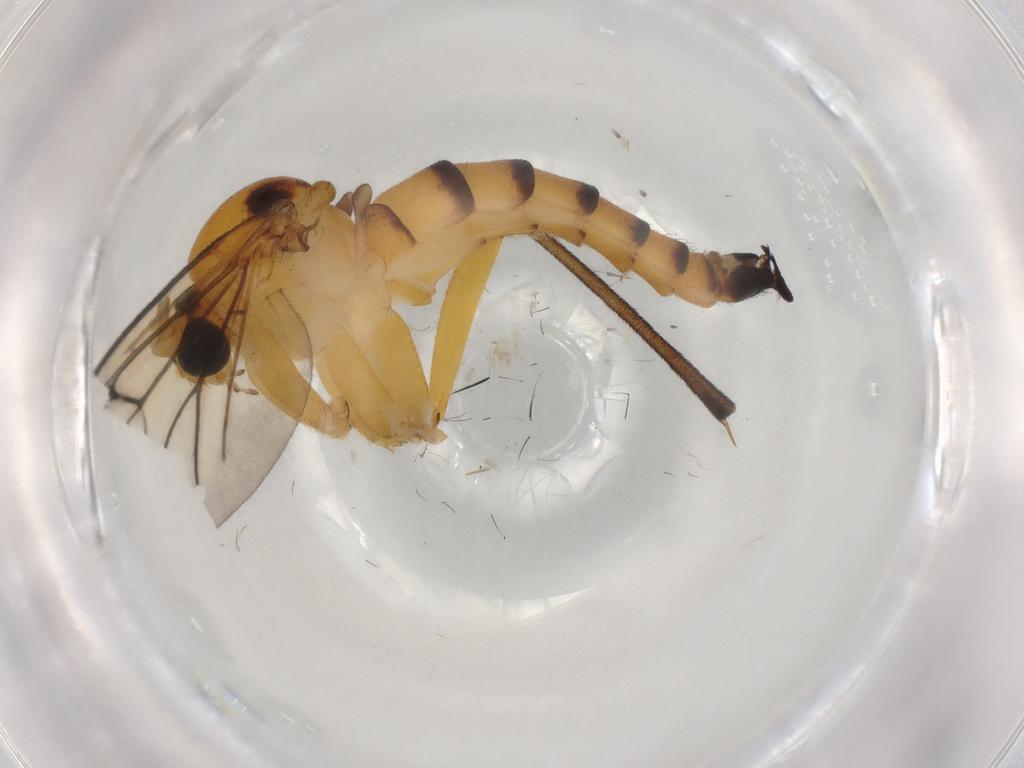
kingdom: Animalia
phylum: Arthropoda
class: Insecta
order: Diptera
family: Sciaridae
